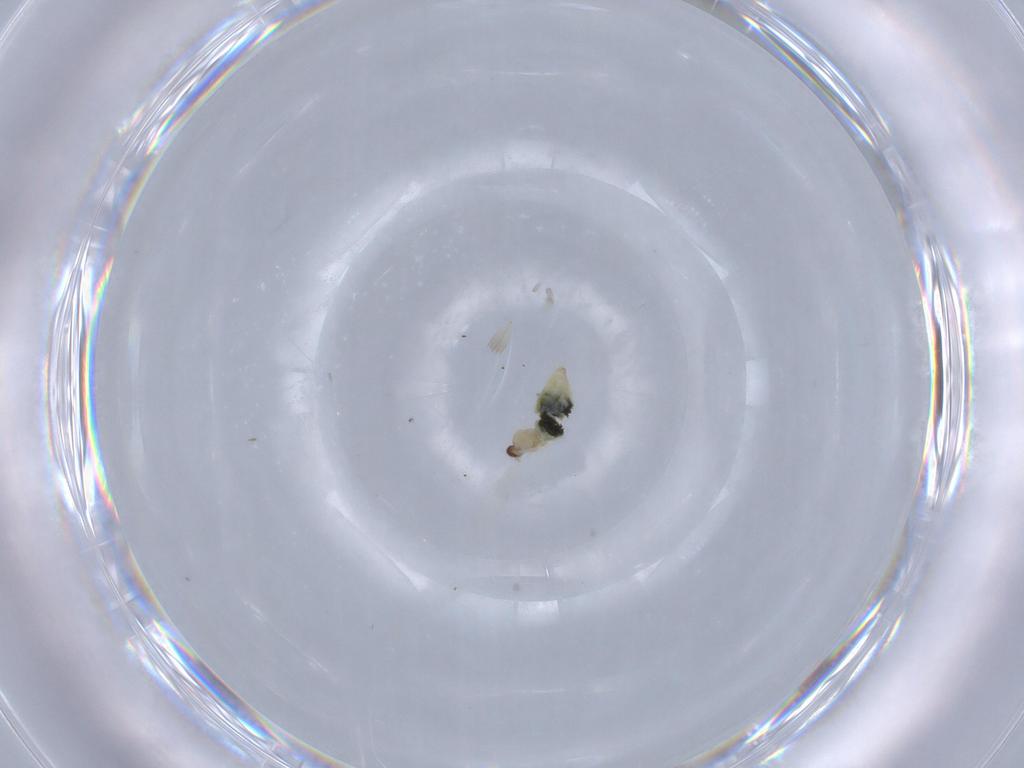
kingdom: Animalia
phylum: Arthropoda
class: Insecta
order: Diptera
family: Cecidomyiidae
